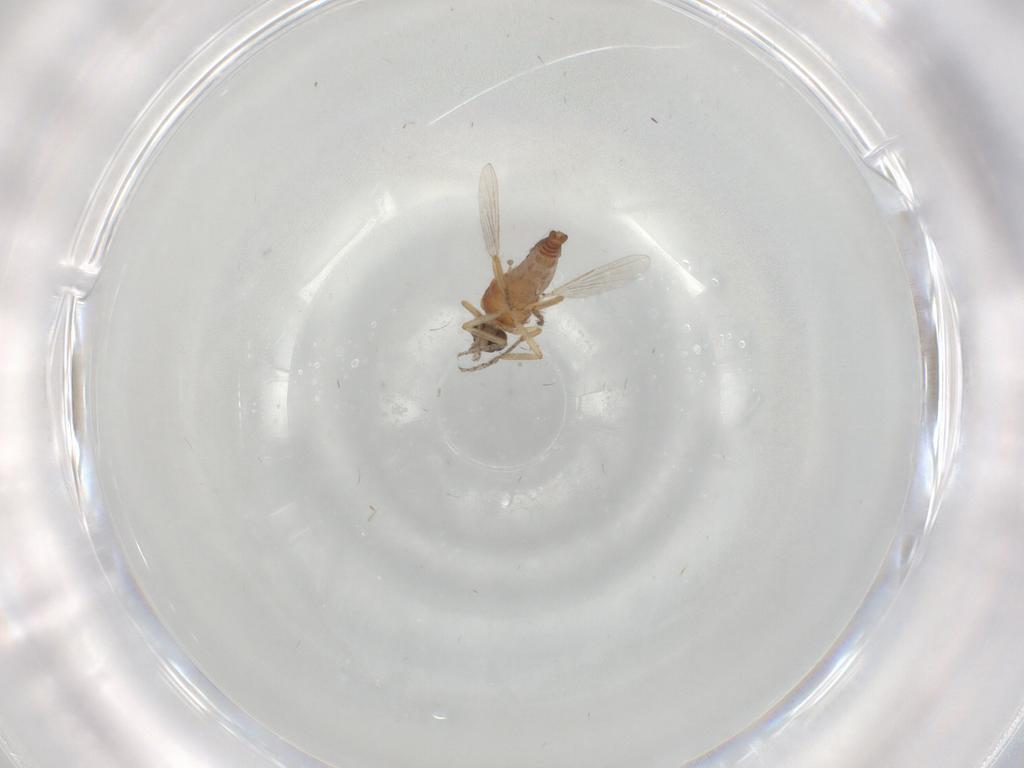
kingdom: Animalia
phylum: Arthropoda
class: Insecta
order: Diptera
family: Ceratopogonidae
